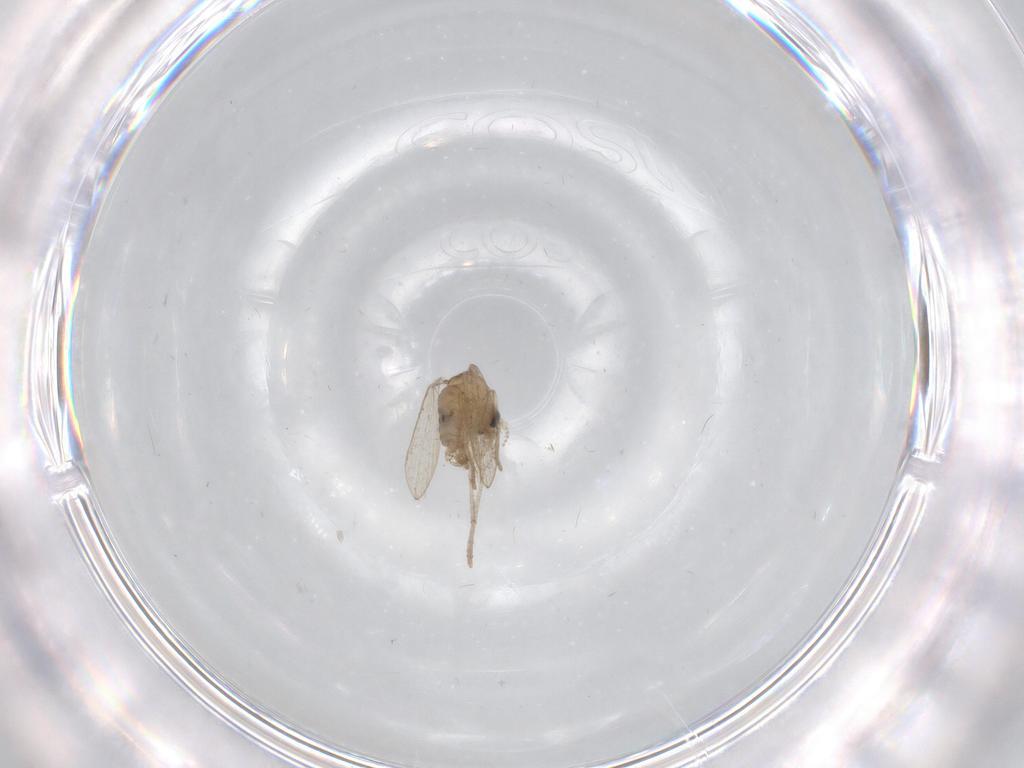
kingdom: Animalia
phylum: Arthropoda
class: Insecta
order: Diptera
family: Psychodidae
